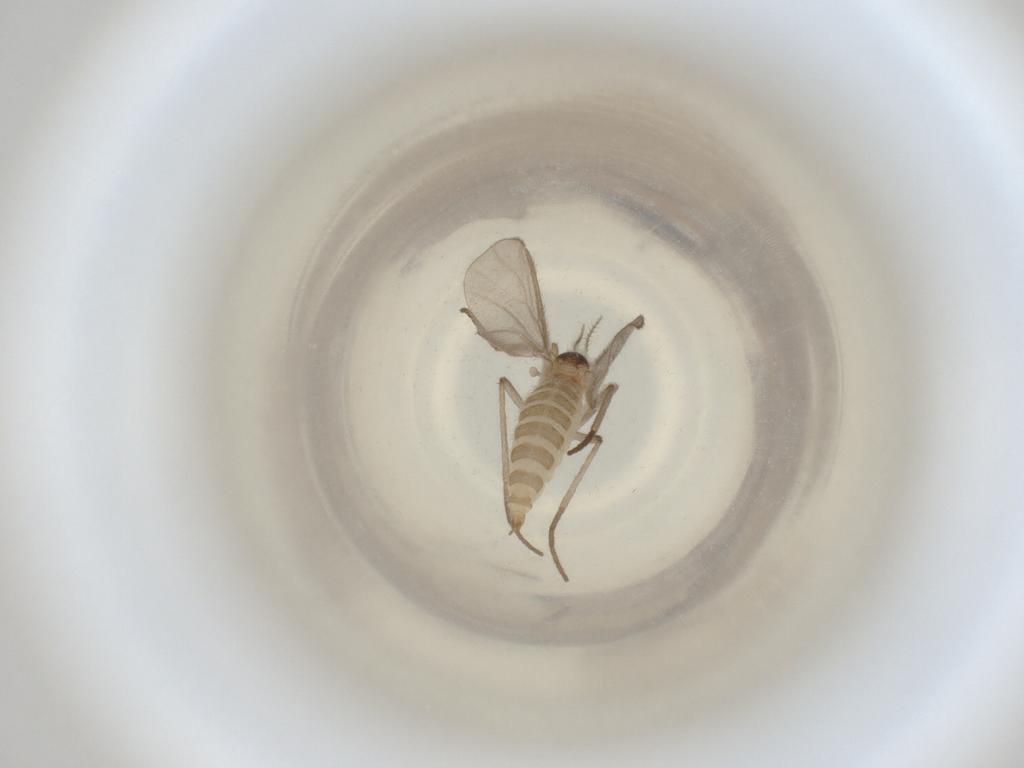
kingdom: Animalia
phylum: Arthropoda
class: Insecta
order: Diptera
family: Cecidomyiidae
